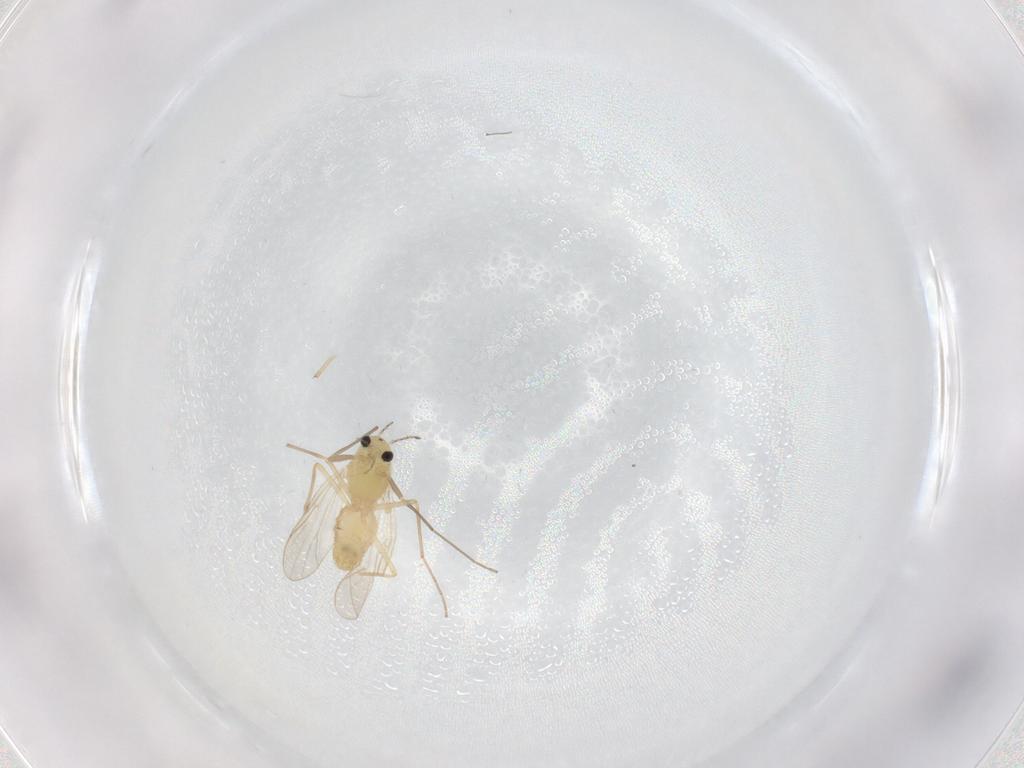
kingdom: Animalia
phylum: Arthropoda
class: Insecta
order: Diptera
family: Chironomidae
